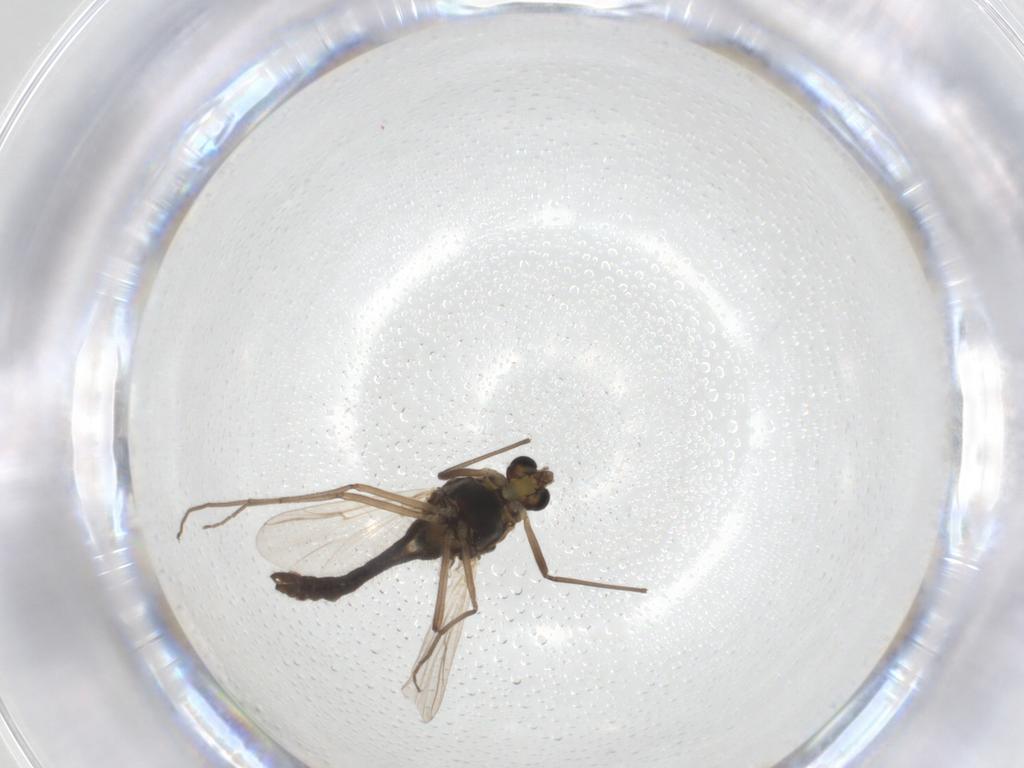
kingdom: Animalia
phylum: Arthropoda
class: Insecta
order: Diptera
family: Chironomidae
